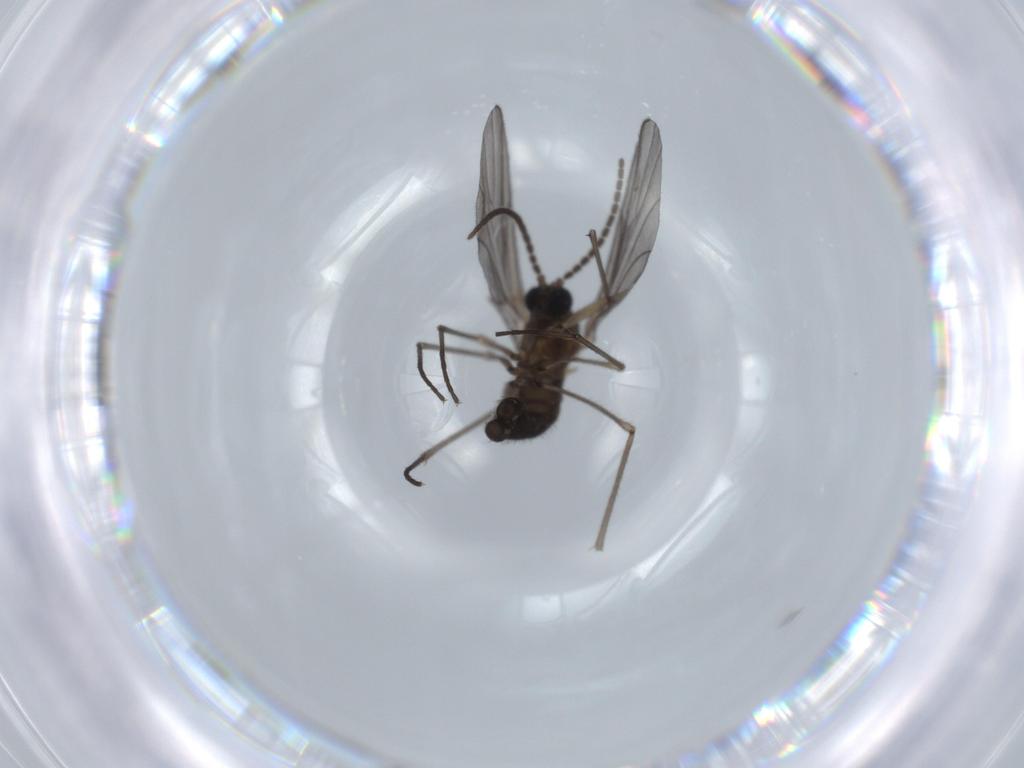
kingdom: Animalia
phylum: Arthropoda
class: Insecta
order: Diptera
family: Sciaridae
